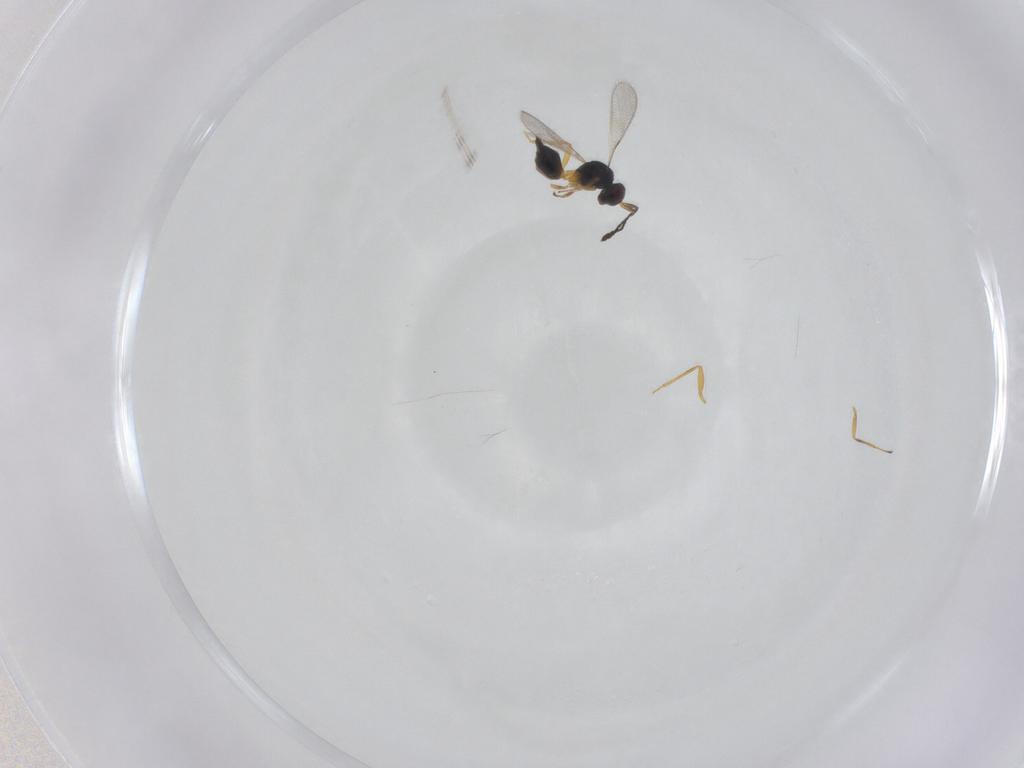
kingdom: Animalia
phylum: Arthropoda
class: Insecta
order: Hymenoptera
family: Mymaridae
